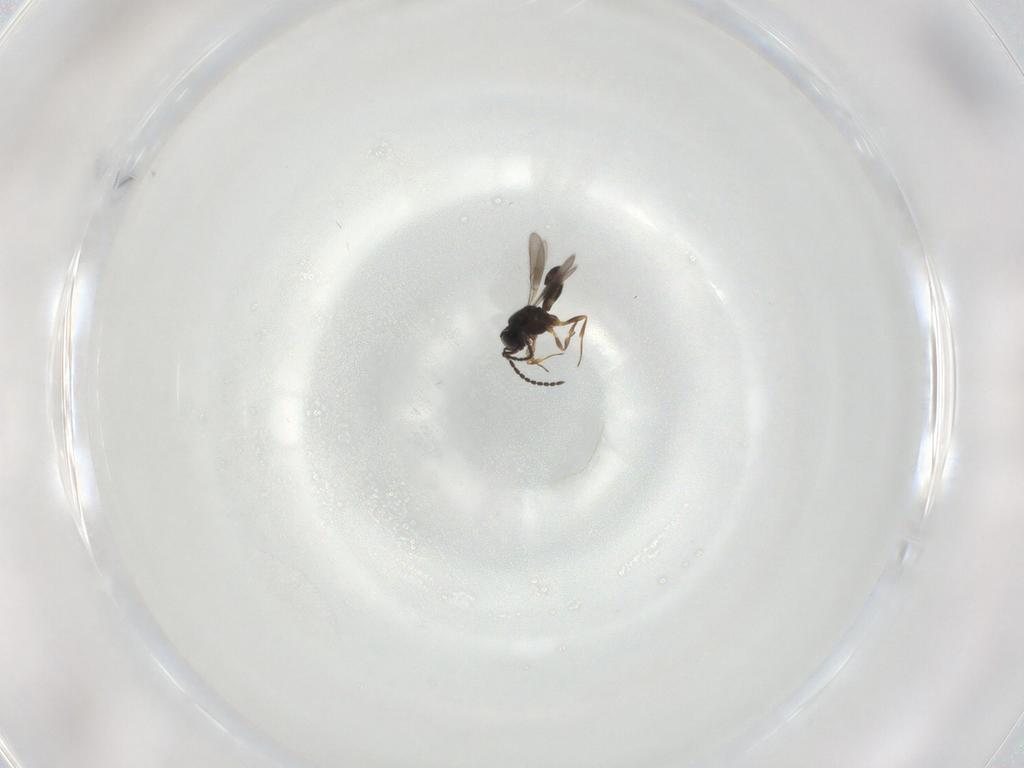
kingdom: Animalia
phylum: Arthropoda
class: Insecta
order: Hymenoptera
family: Scelionidae
